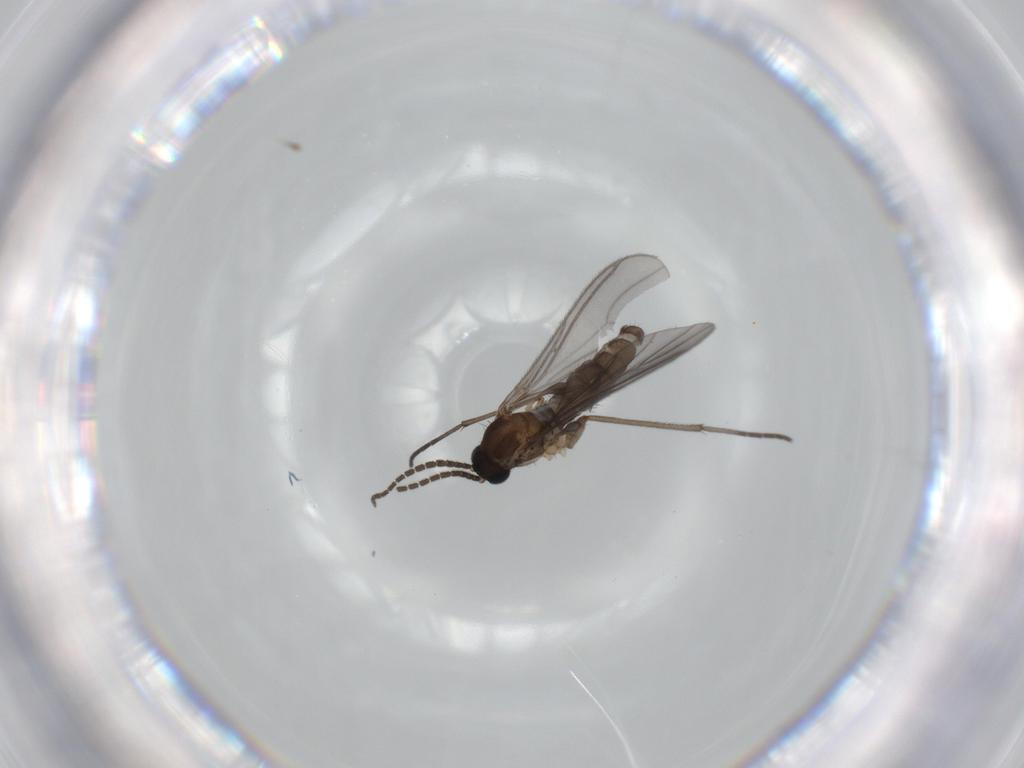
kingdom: Animalia
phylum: Arthropoda
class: Insecta
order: Diptera
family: Sciaridae
